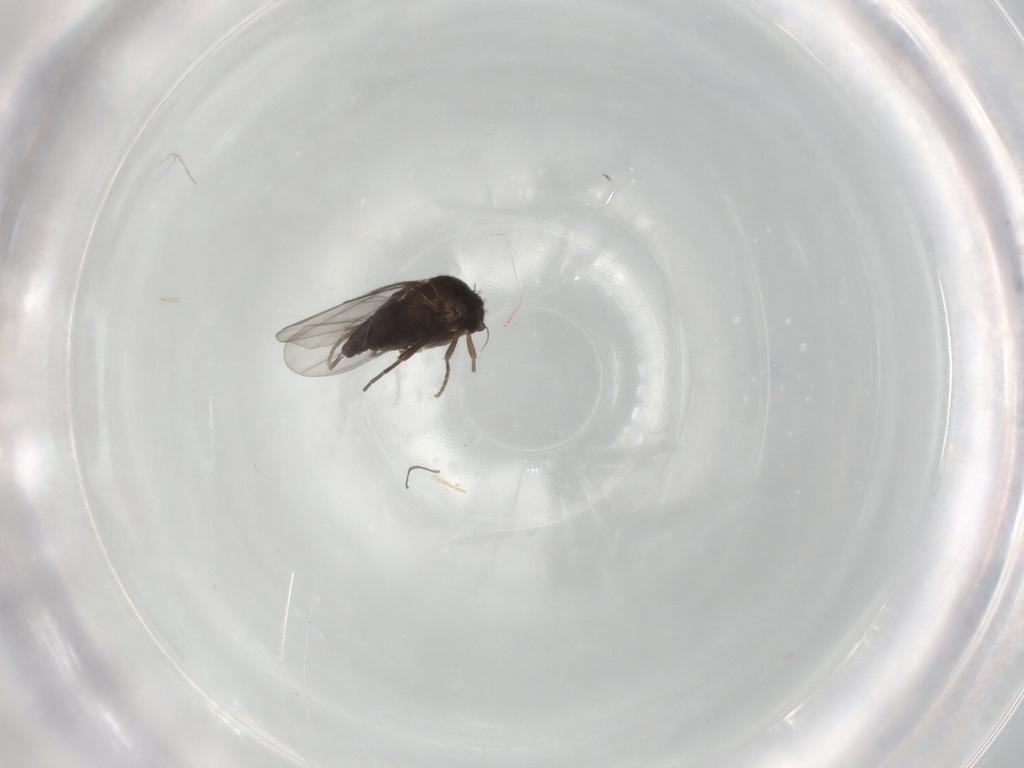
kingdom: Animalia
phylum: Arthropoda
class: Insecta
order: Diptera
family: Phoridae
